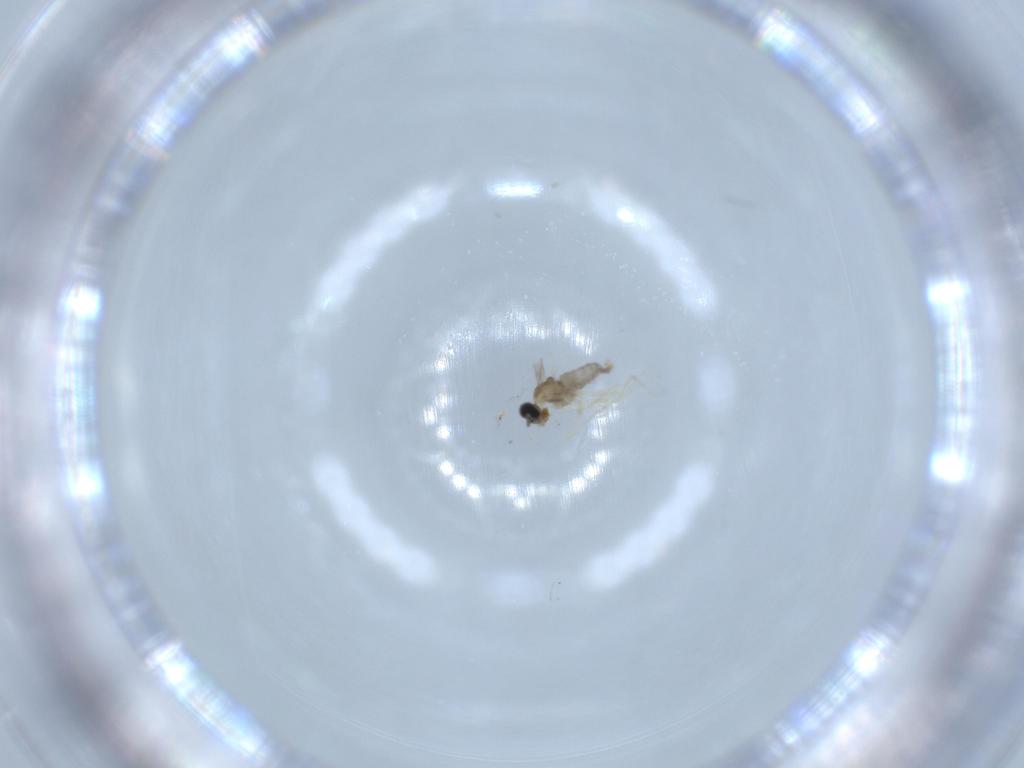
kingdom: Animalia
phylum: Arthropoda
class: Insecta
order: Diptera
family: Cecidomyiidae
